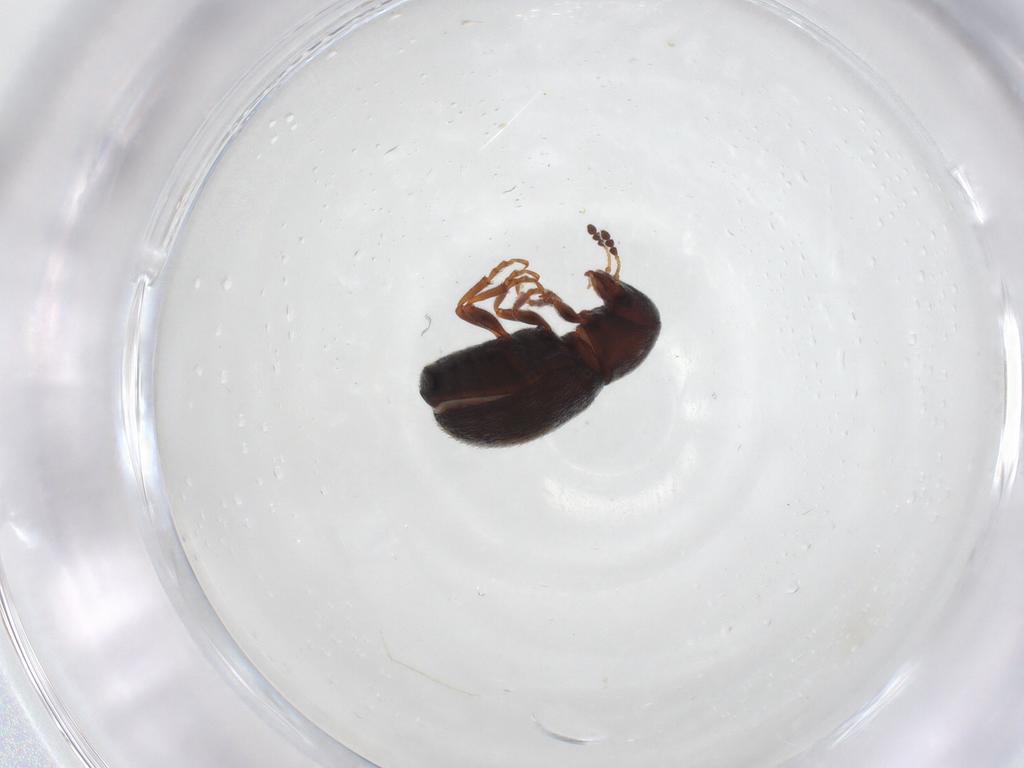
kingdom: Animalia
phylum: Arthropoda
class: Insecta
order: Coleoptera
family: Anthribidae
